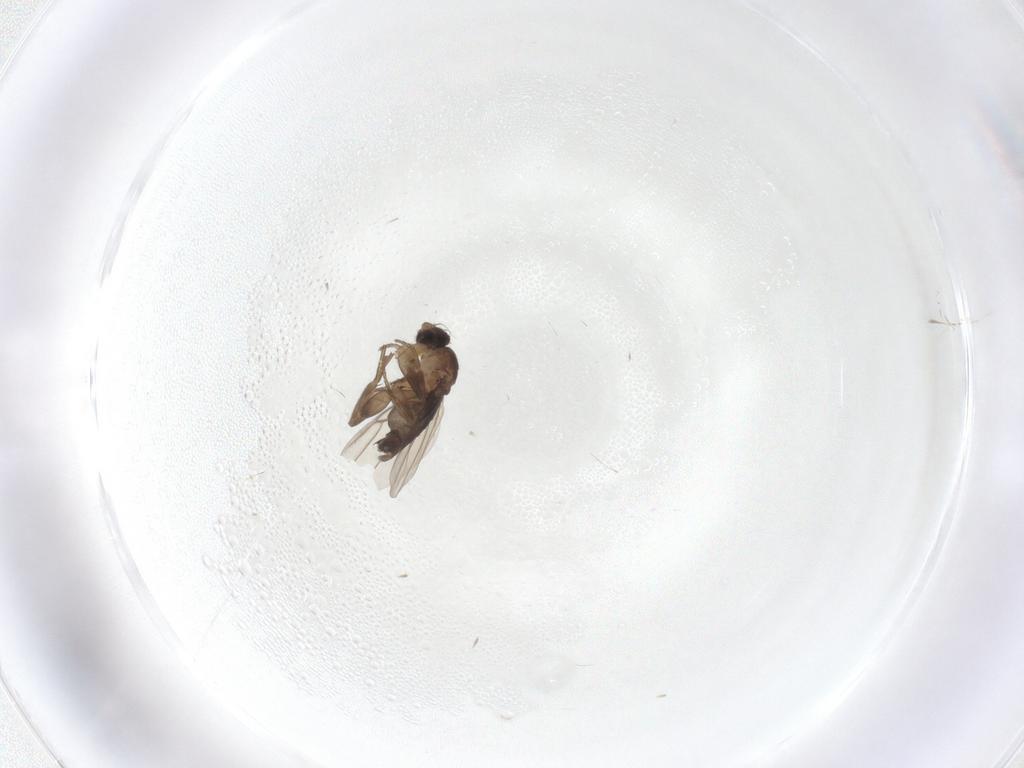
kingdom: Animalia
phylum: Arthropoda
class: Insecta
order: Diptera
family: Phoridae
